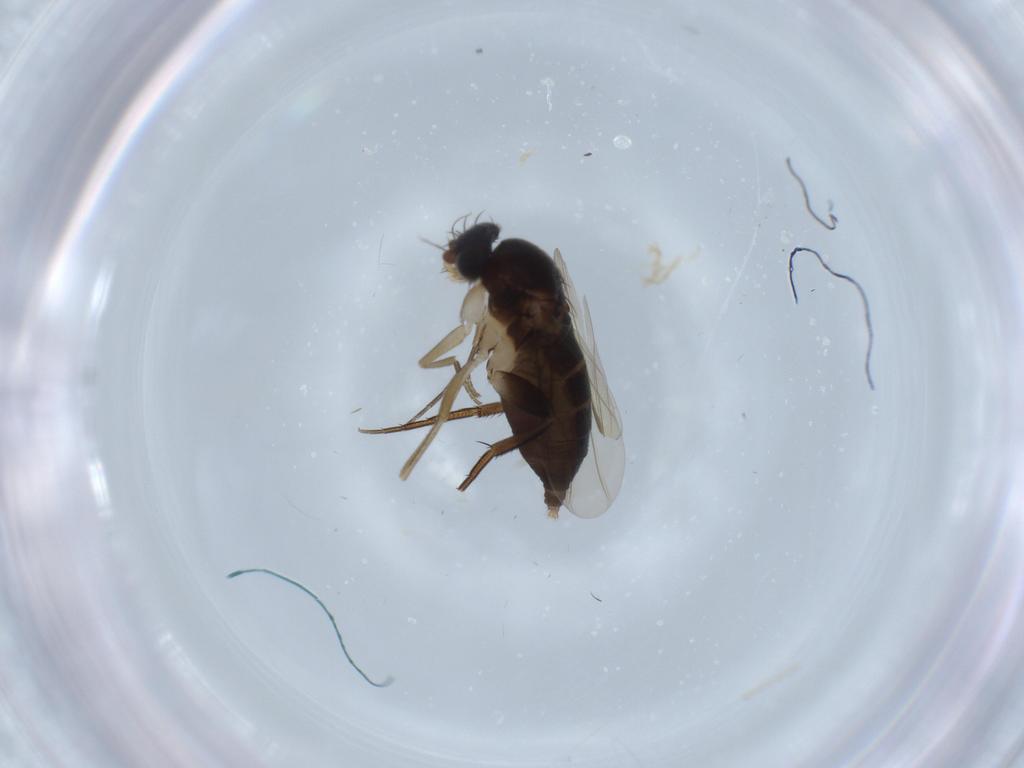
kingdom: Animalia
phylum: Arthropoda
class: Insecta
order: Diptera
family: Phoridae
